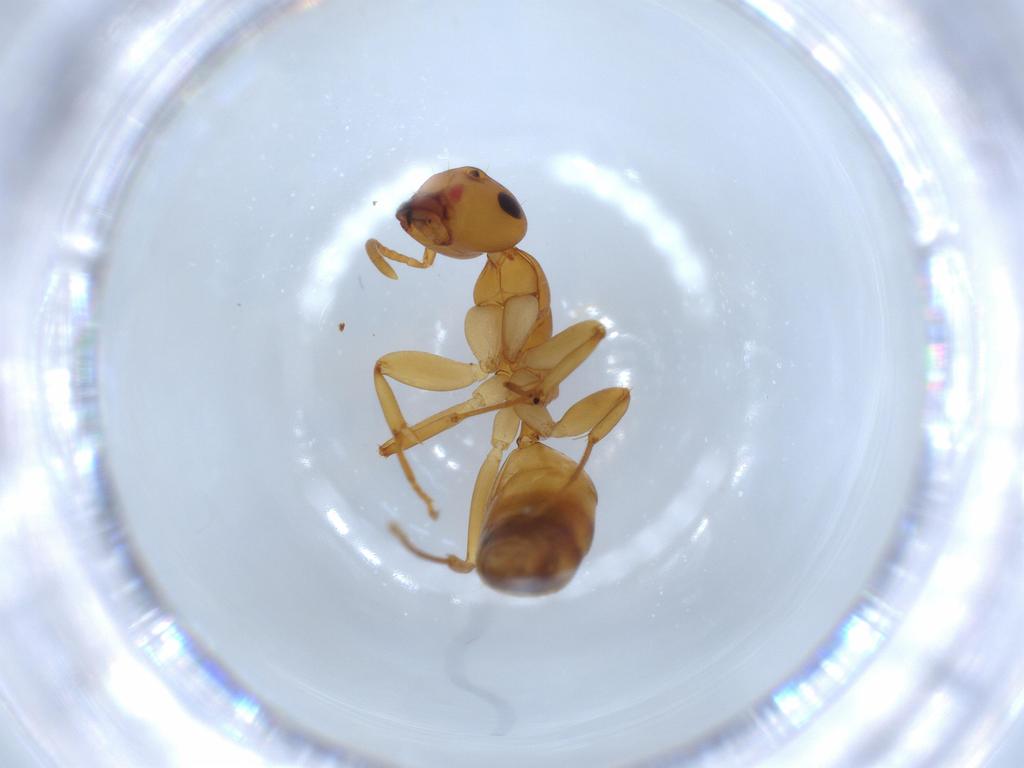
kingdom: Animalia
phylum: Arthropoda
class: Insecta
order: Hymenoptera
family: Formicidae
